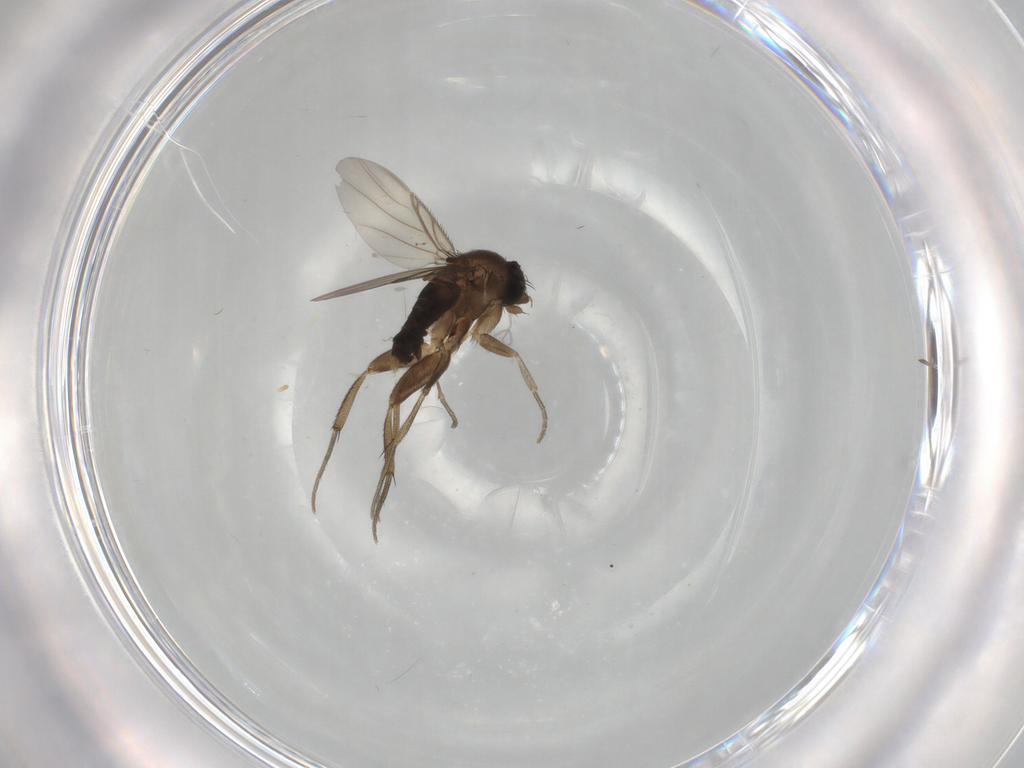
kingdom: Animalia
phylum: Arthropoda
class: Insecta
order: Diptera
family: Phoridae
